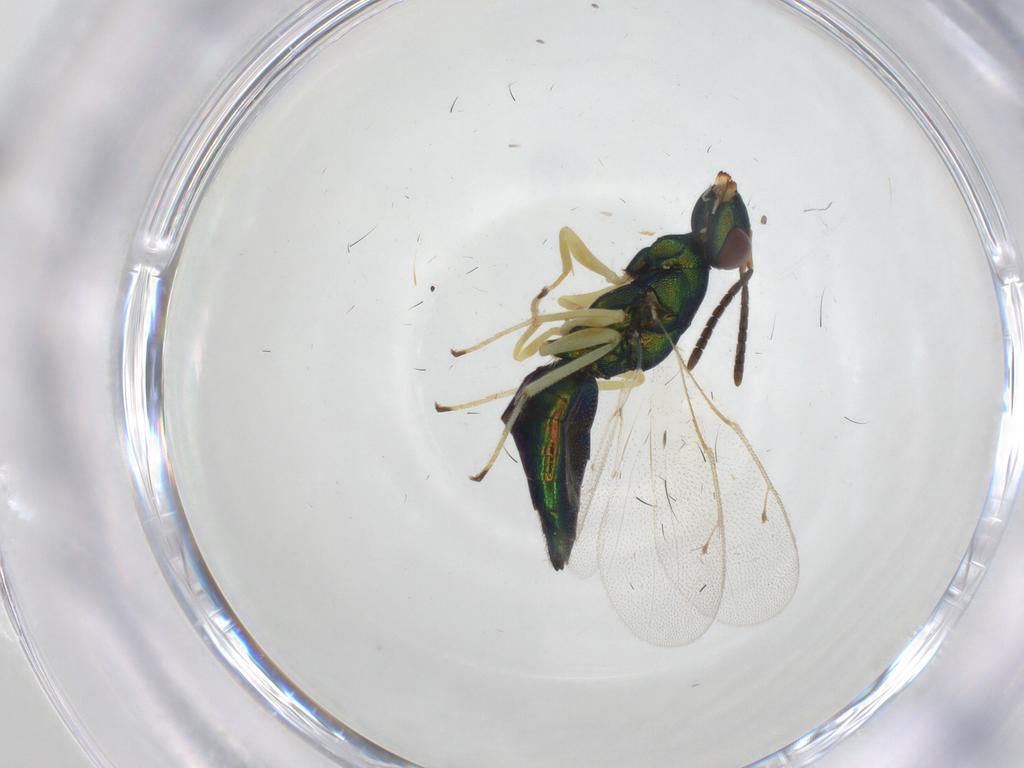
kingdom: Animalia
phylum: Arthropoda
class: Insecta
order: Hymenoptera
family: Pteromalidae
